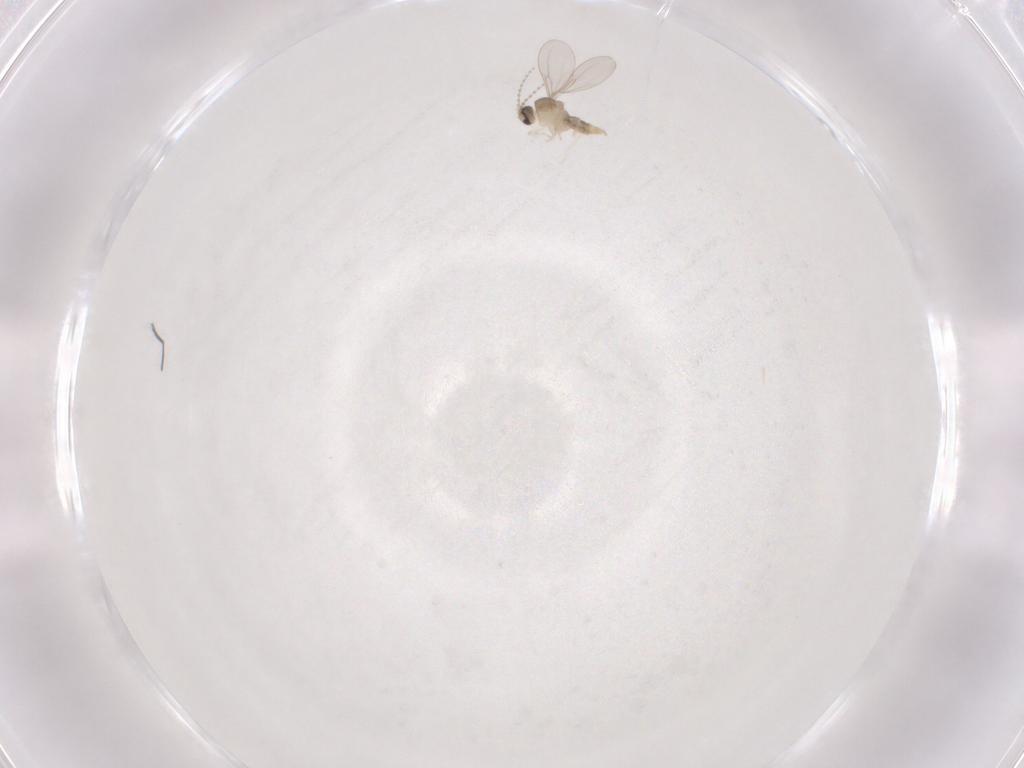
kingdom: Animalia
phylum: Arthropoda
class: Insecta
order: Diptera
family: Cecidomyiidae
